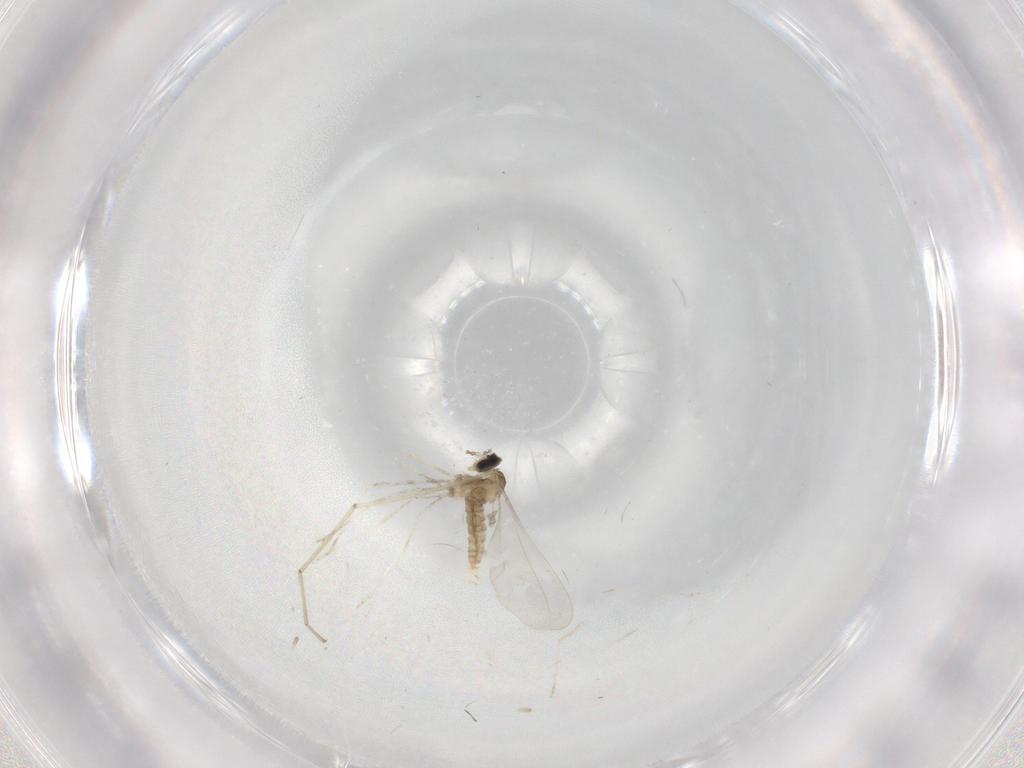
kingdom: Animalia
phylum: Arthropoda
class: Insecta
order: Diptera
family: Cecidomyiidae
